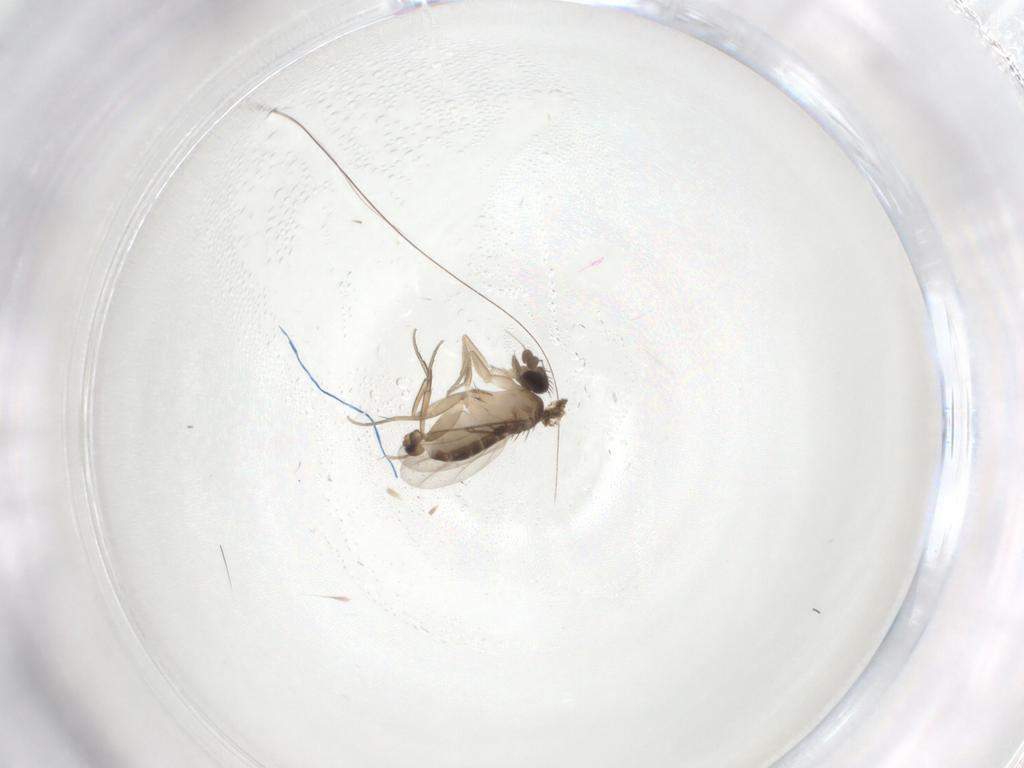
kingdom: Animalia
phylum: Arthropoda
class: Insecta
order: Diptera
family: Phoridae
